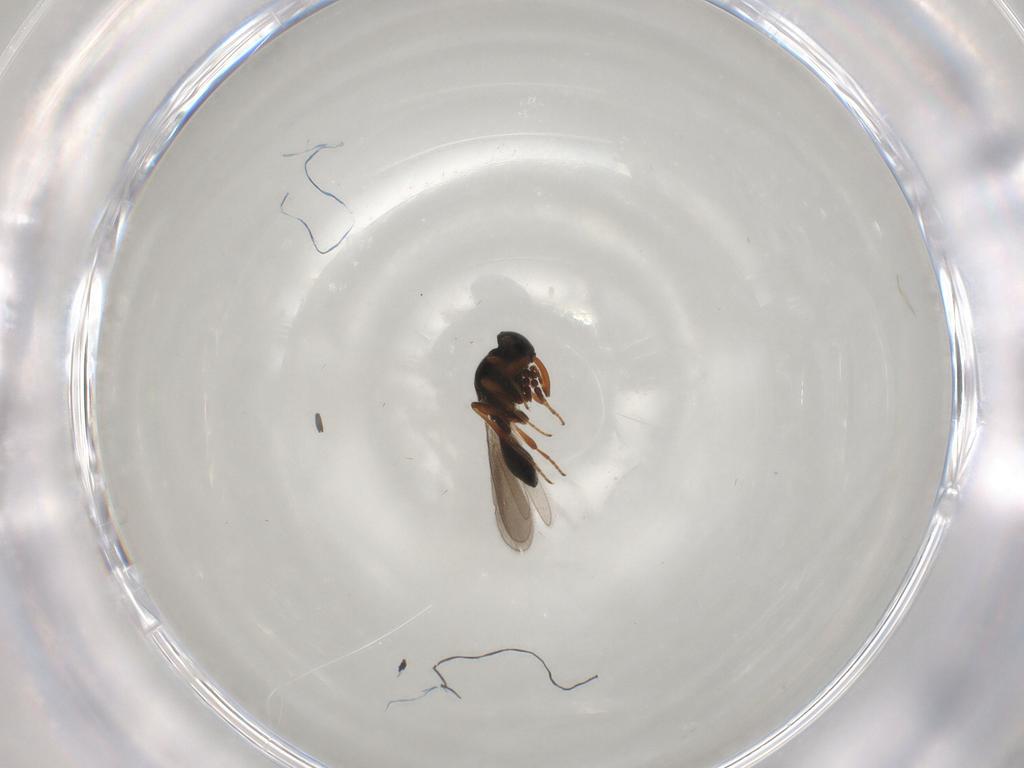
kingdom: Animalia
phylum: Arthropoda
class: Insecta
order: Hymenoptera
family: Platygastridae
